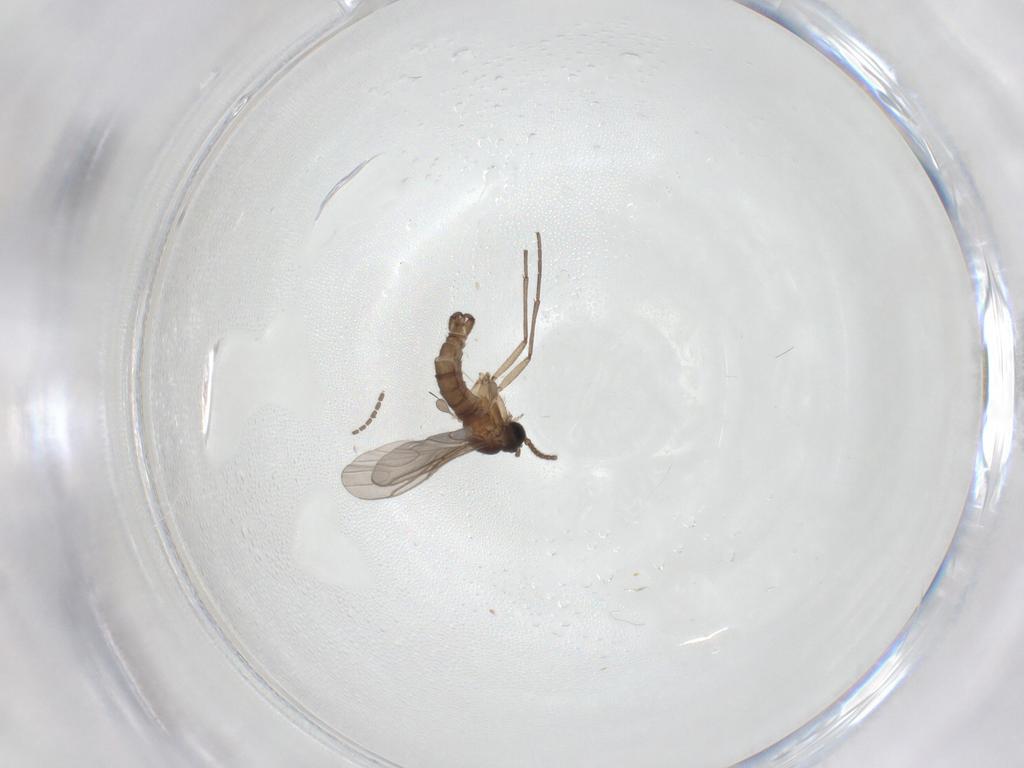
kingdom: Animalia
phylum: Arthropoda
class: Insecta
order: Diptera
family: Sciaridae
